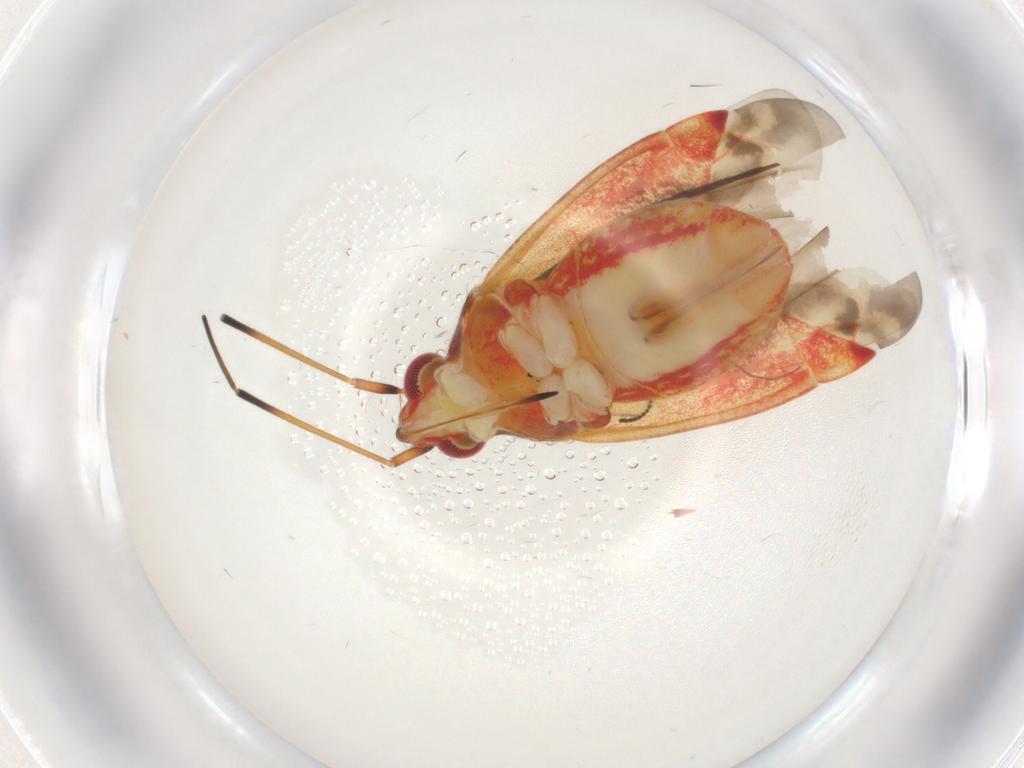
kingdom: Animalia
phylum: Arthropoda
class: Insecta
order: Hemiptera
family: Miridae
